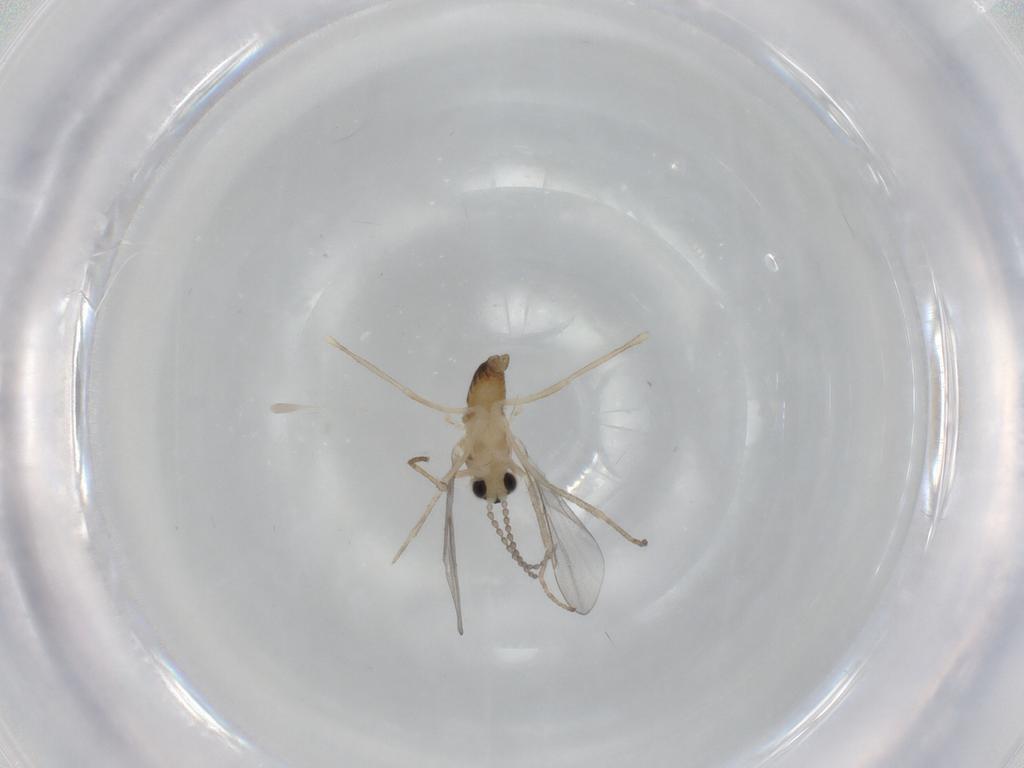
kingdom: Animalia
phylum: Arthropoda
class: Insecta
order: Diptera
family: Cecidomyiidae
